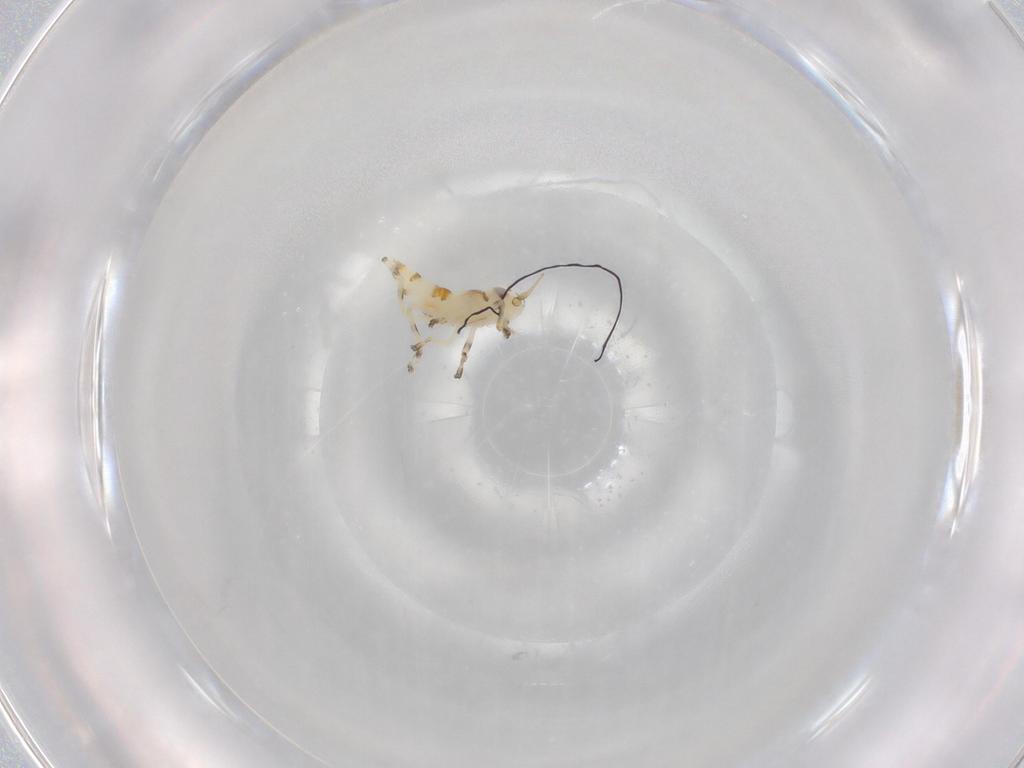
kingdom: Animalia
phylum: Arthropoda
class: Insecta
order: Hemiptera
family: Cicadellidae
